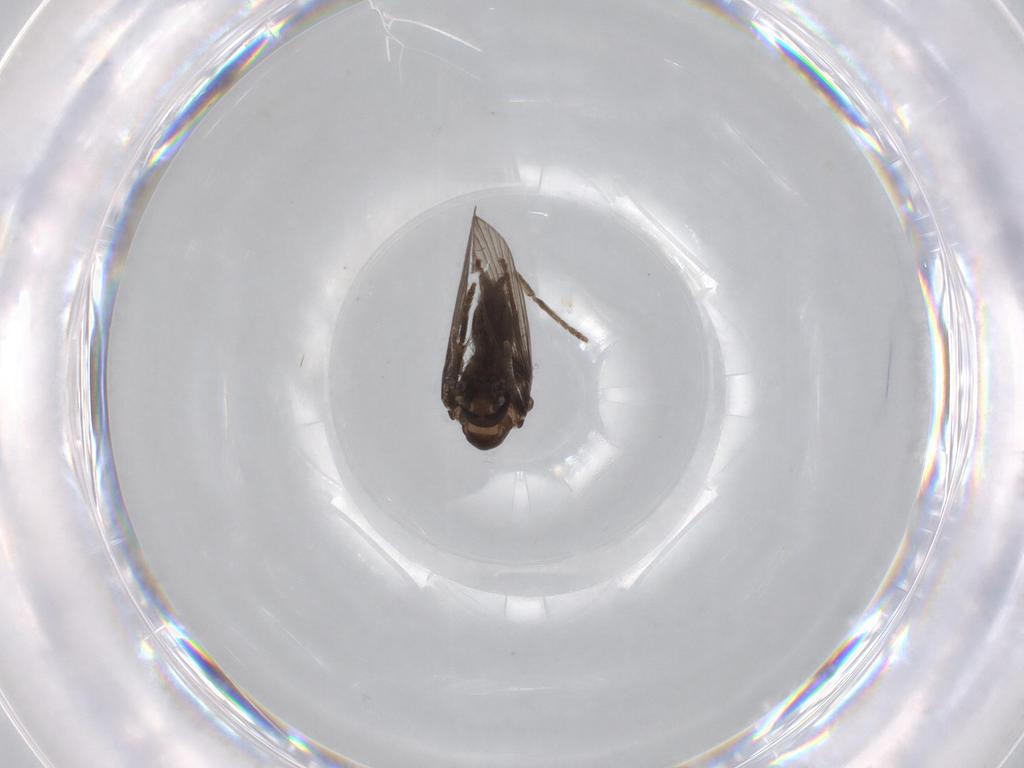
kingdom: Animalia
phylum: Arthropoda
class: Insecta
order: Diptera
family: Psychodidae
